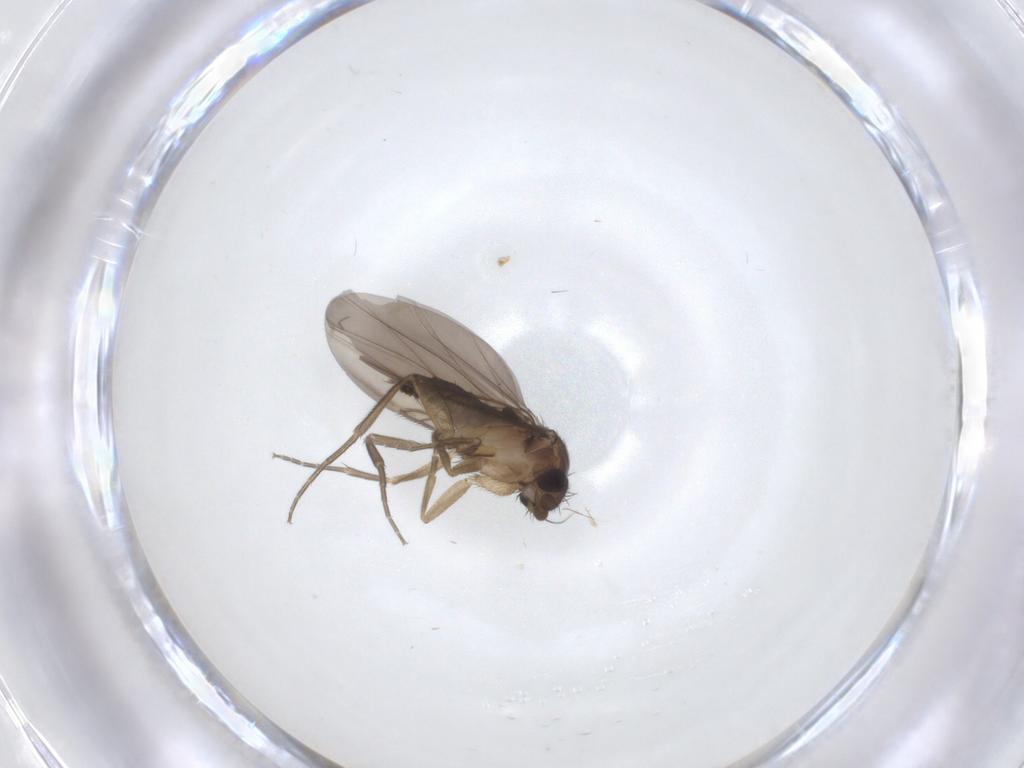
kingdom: Animalia
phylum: Arthropoda
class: Insecta
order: Diptera
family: Phoridae
